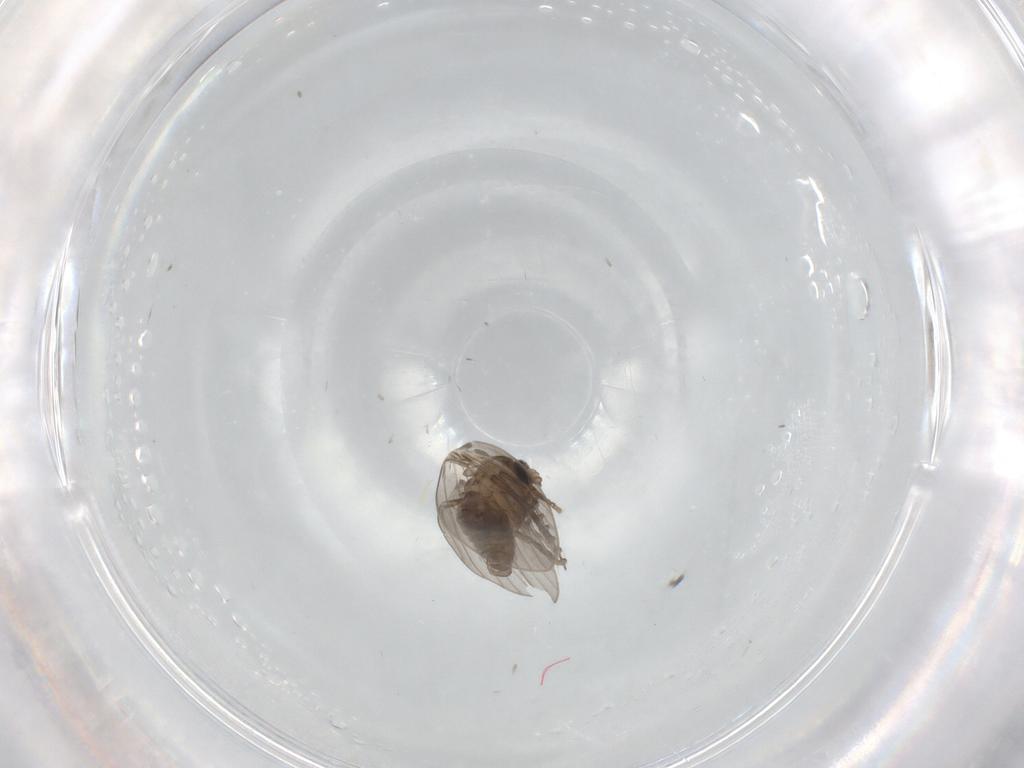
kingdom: Animalia
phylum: Arthropoda
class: Insecta
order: Diptera
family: Psychodidae
